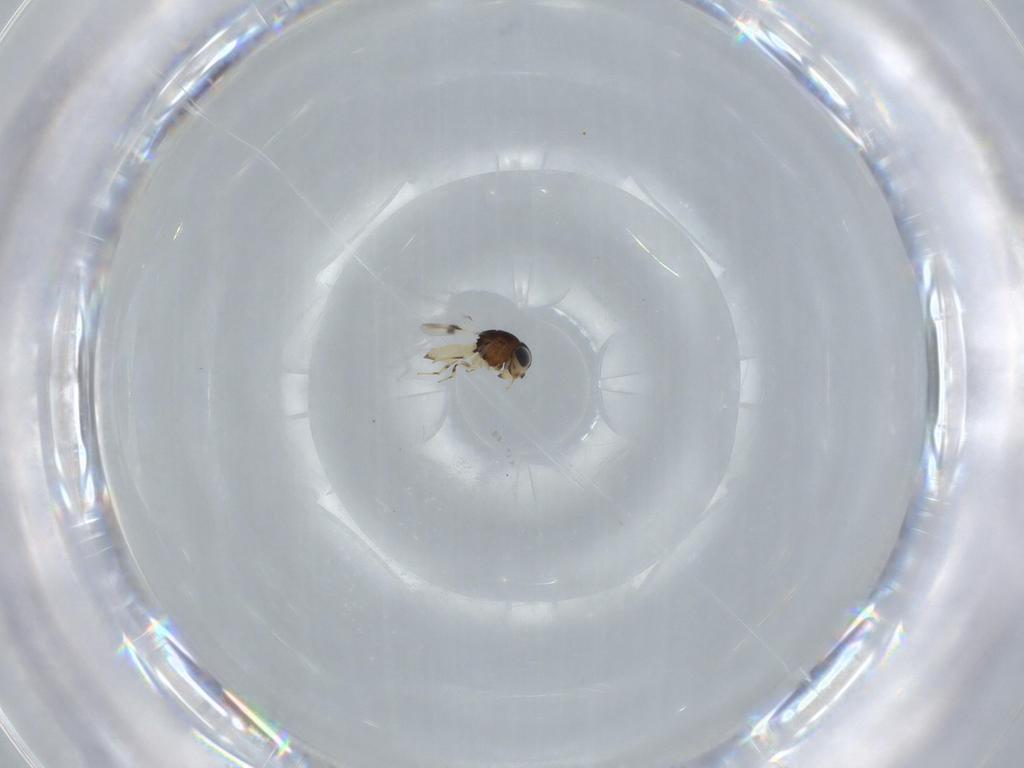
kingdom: Animalia
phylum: Arthropoda
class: Insecta
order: Hymenoptera
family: Scelionidae
